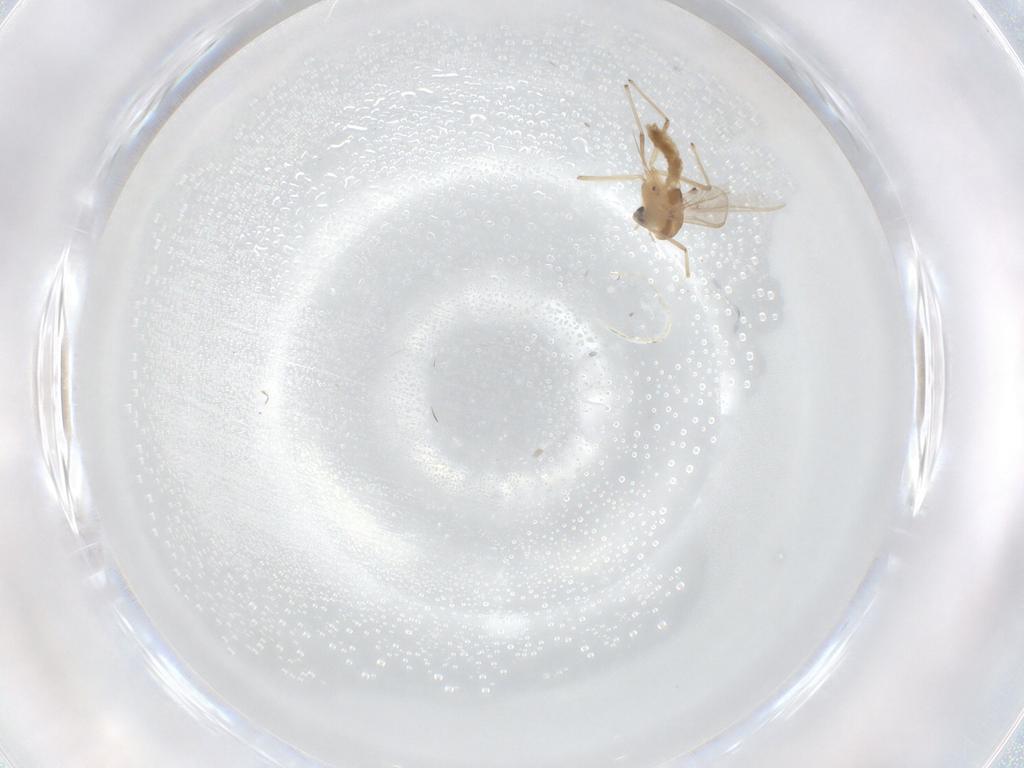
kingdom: Animalia
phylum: Arthropoda
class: Insecta
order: Diptera
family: Chironomidae
